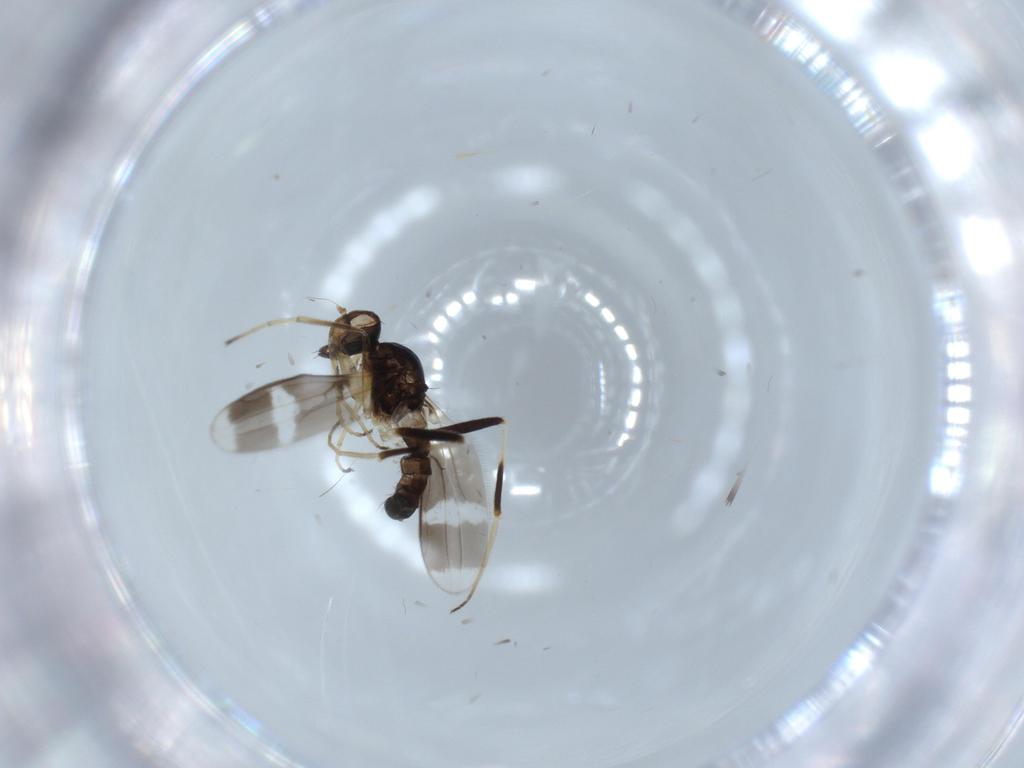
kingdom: Animalia
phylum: Arthropoda
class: Insecta
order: Diptera
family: Hybotidae
